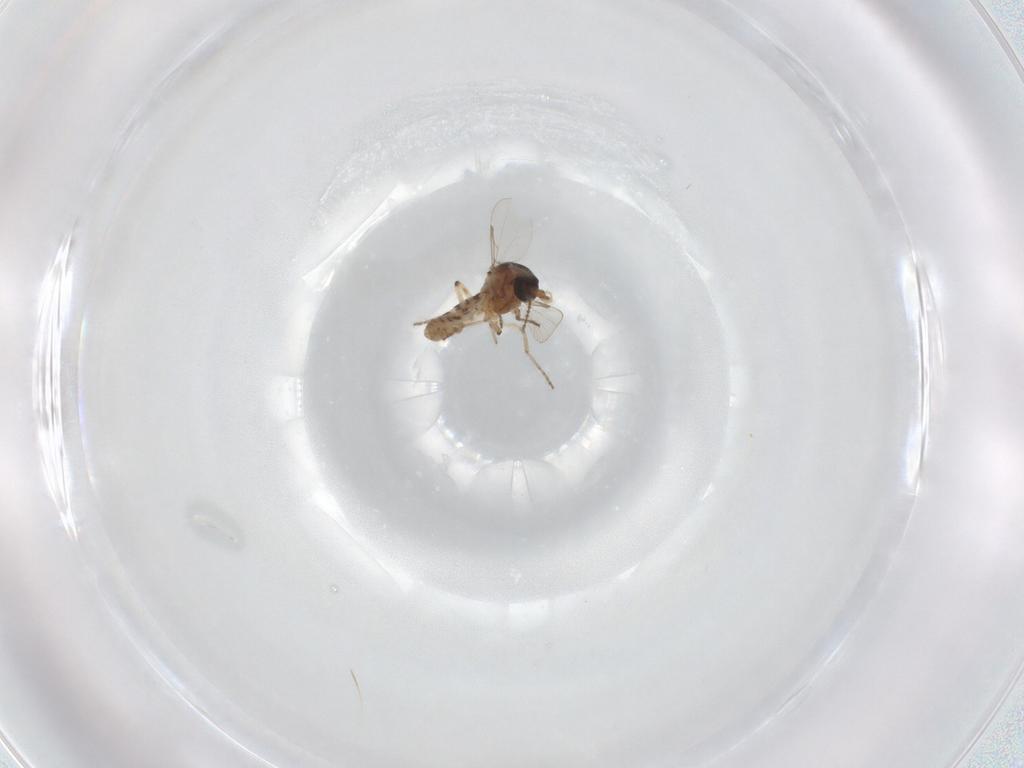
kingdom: Animalia
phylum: Arthropoda
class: Insecta
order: Diptera
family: Ceratopogonidae
